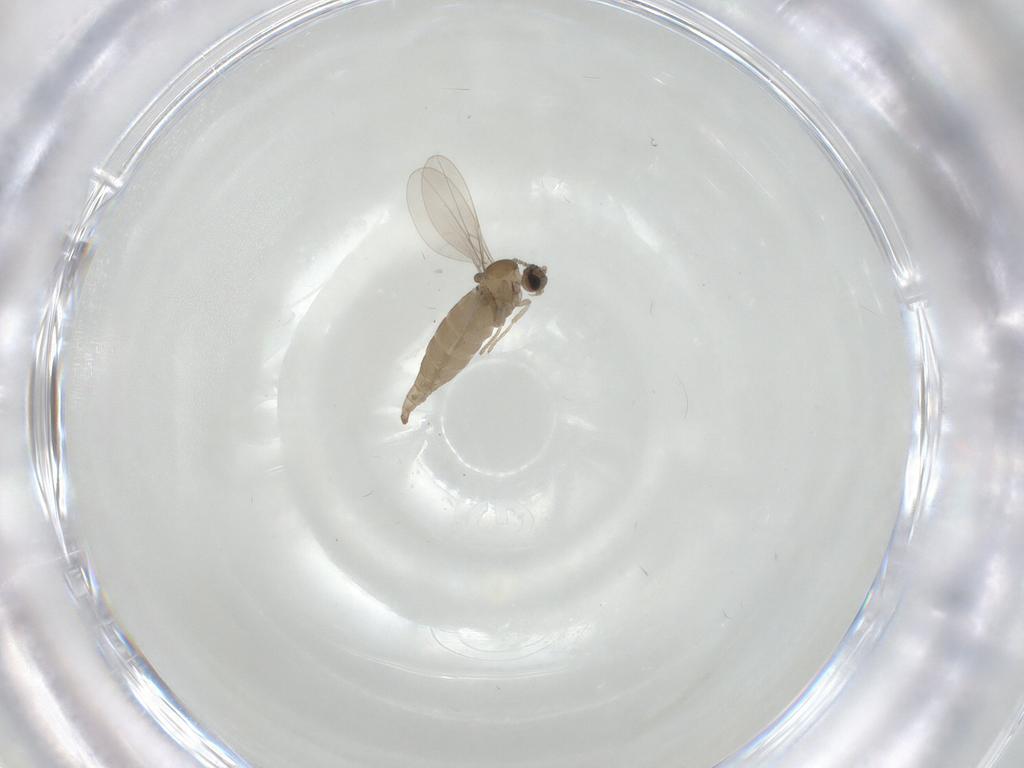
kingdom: Animalia
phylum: Arthropoda
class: Insecta
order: Diptera
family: Cecidomyiidae
